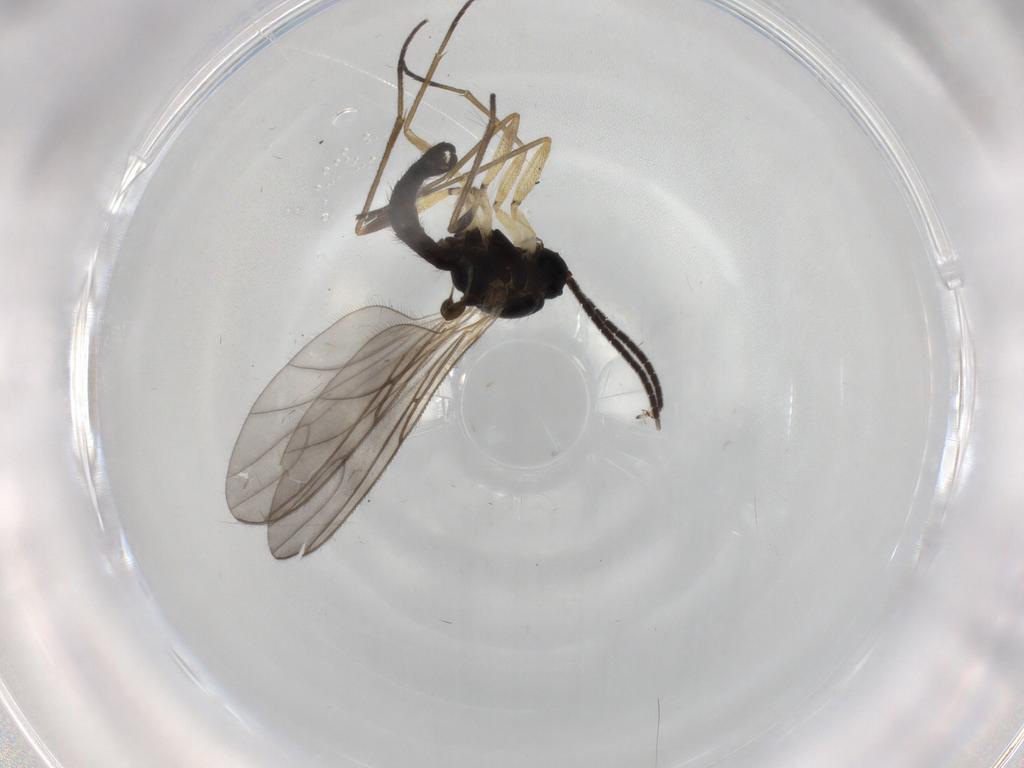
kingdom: Animalia
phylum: Arthropoda
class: Insecta
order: Diptera
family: Sciaridae
